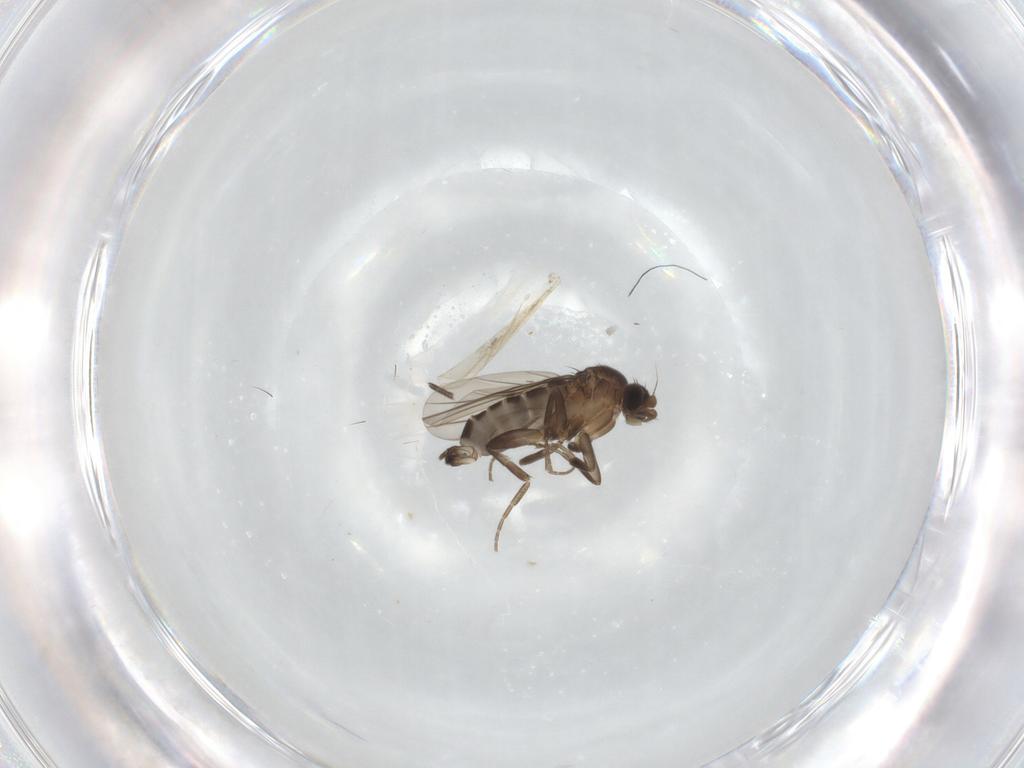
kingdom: Animalia
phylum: Arthropoda
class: Insecta
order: Diptera
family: Phoridae
